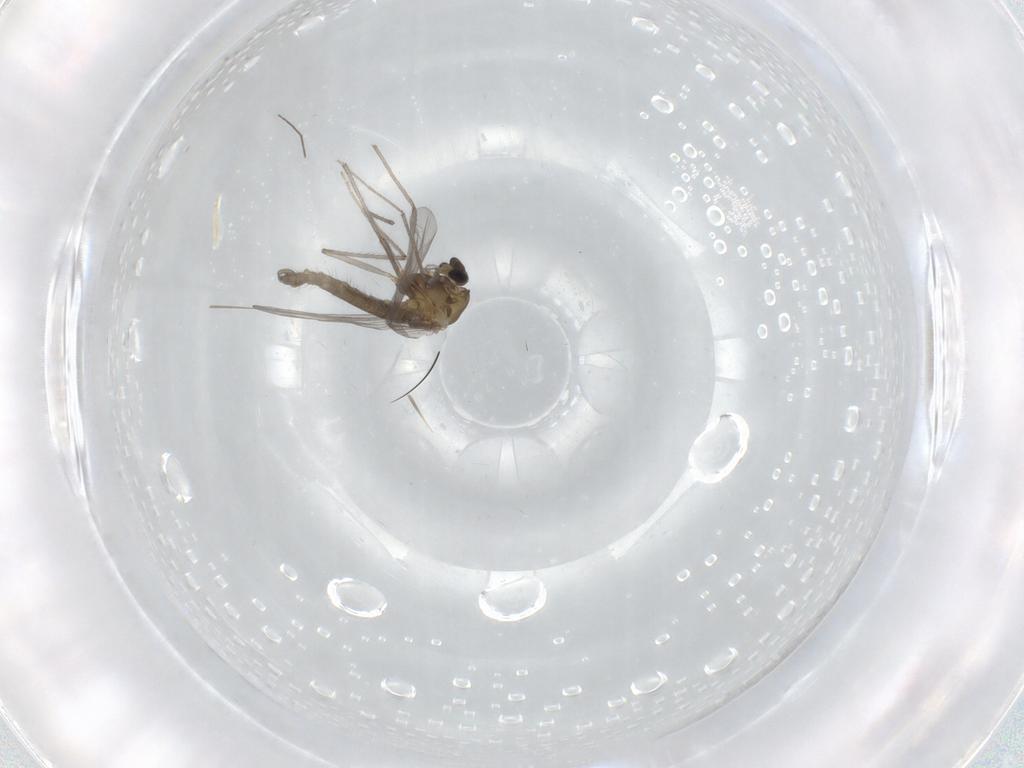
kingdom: Animalia
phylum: Arthropoda
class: Insecta
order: Diptera
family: Chironomidae
